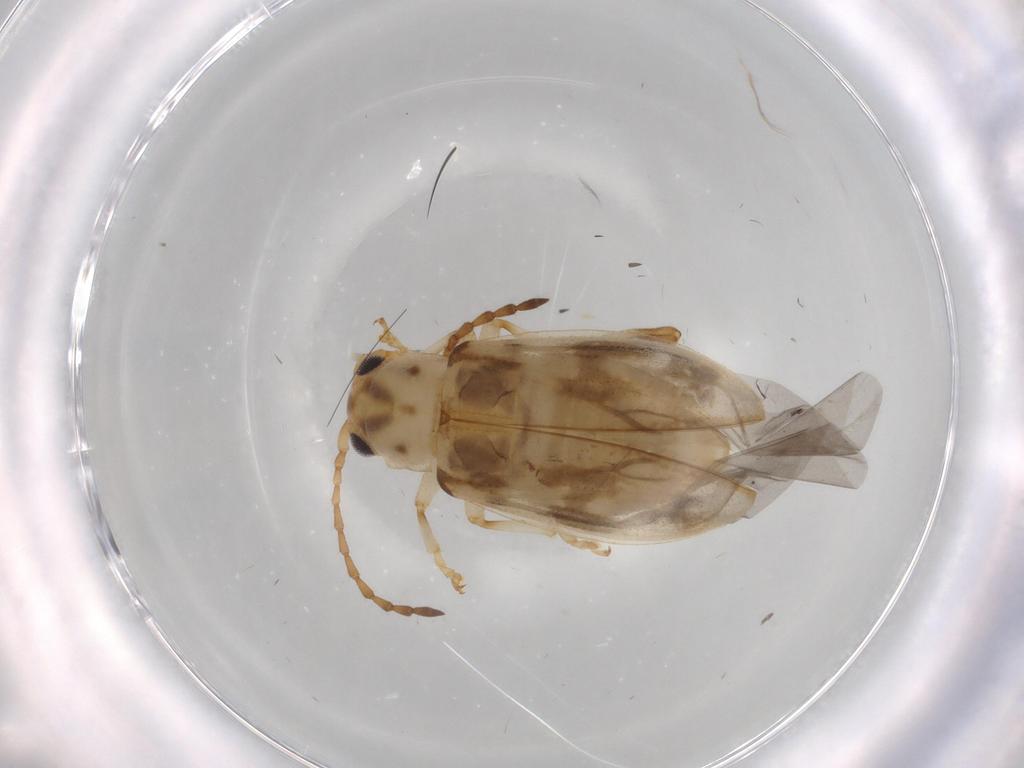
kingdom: Animalia
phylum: Arthropoda
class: Insecta
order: Coleoptera
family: Chrysomelidae
